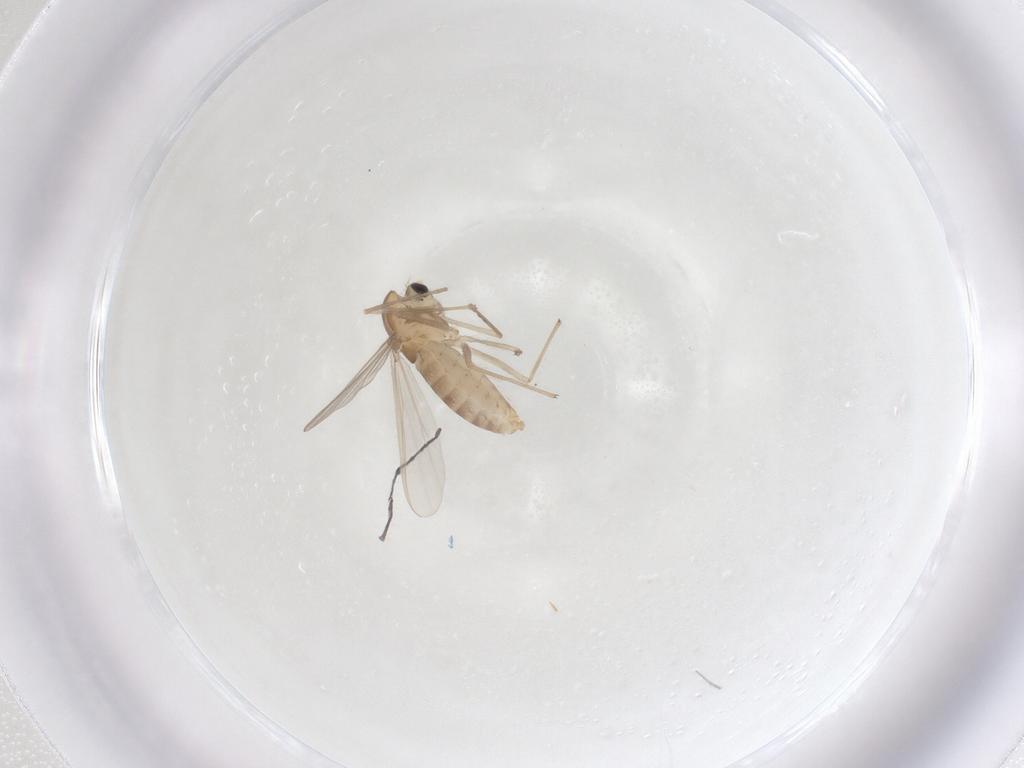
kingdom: Animalia
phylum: Arthropoda
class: Insecta
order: Diptera
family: Chironomidae
